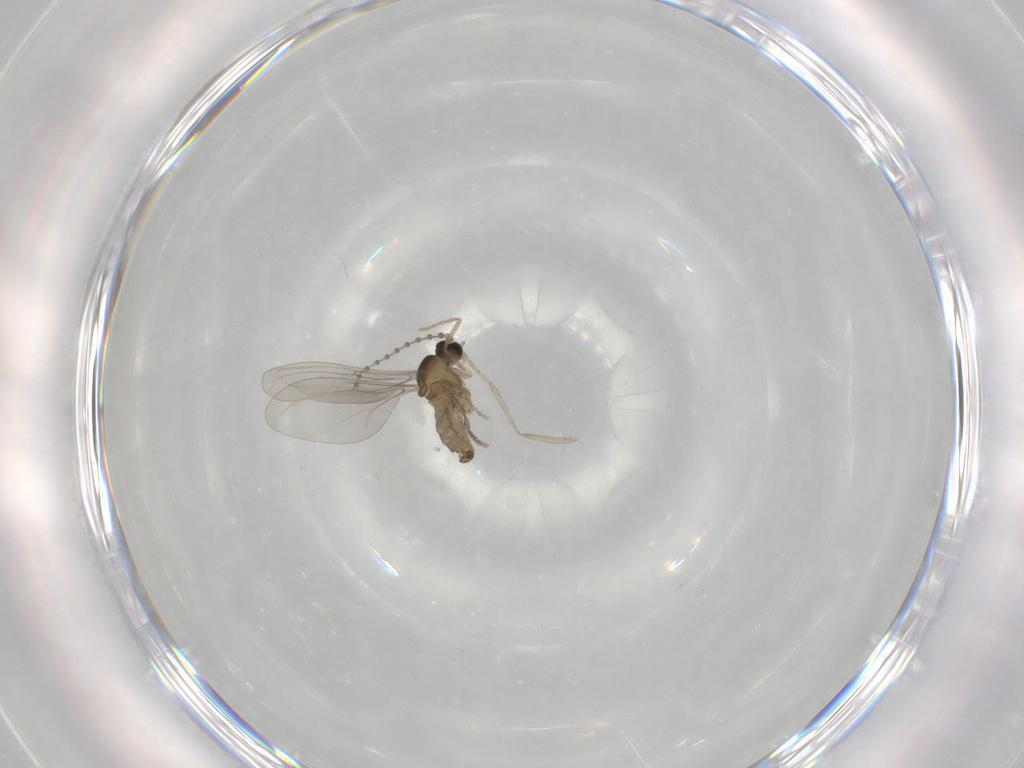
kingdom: Animalia
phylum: Arthropoda
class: Insecta
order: Diptera
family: Cecidomyiidae
